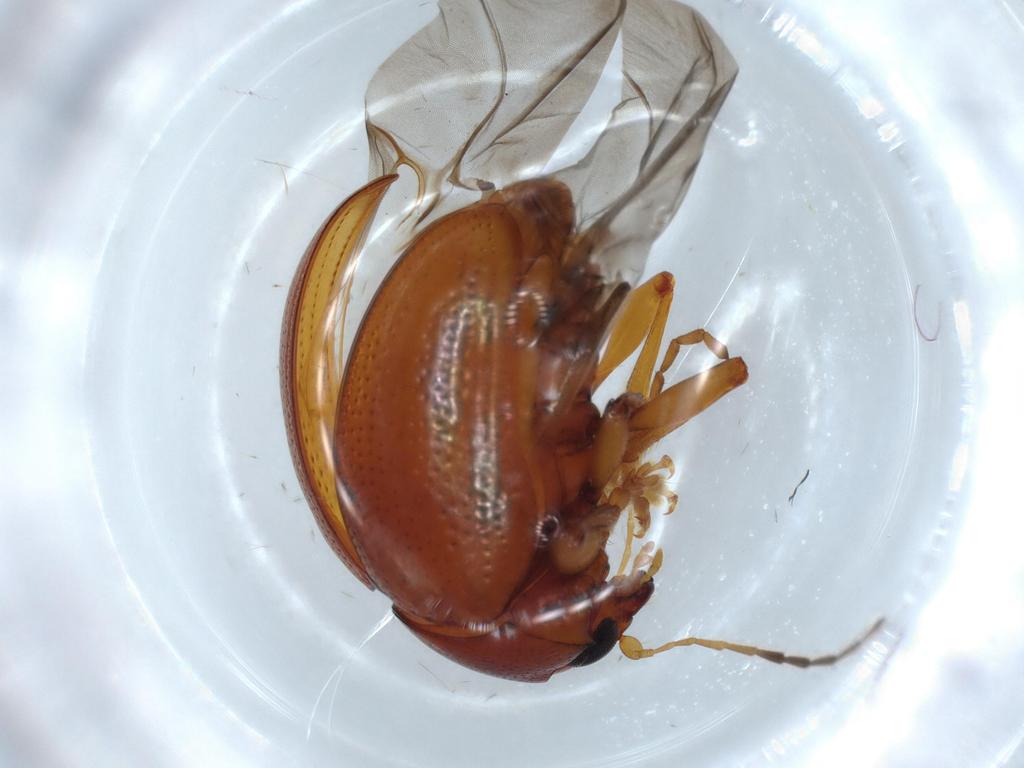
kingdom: Animalia
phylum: Arthropoda
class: Insecta
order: Coleoptera
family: Chrysomelidae
